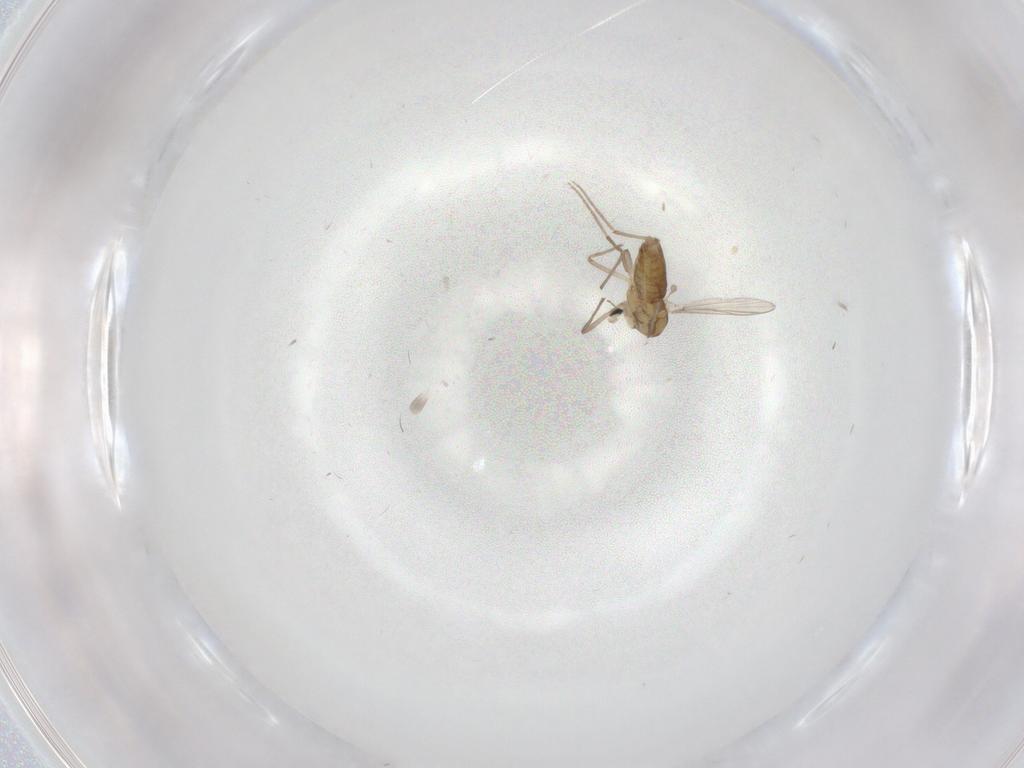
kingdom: Animalia
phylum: Arthropoda
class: Insecta
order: Diptera
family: Chironomidae
